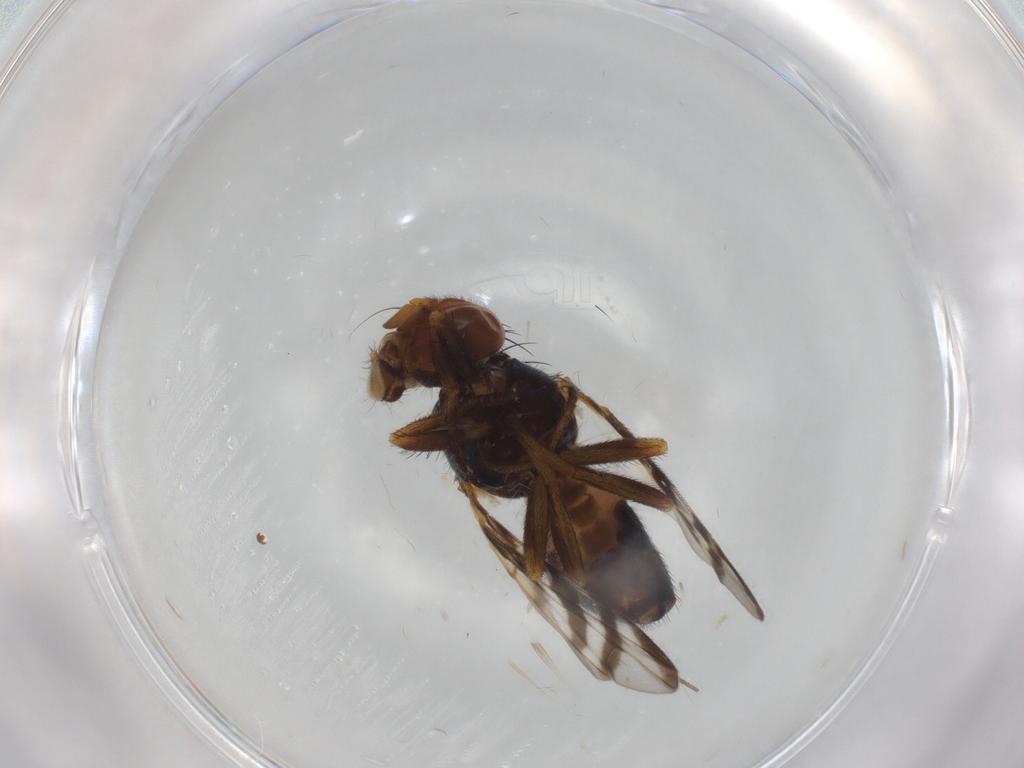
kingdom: Animalia
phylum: Arthropoda
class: Insecta
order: Diptera
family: Platystomatidae
